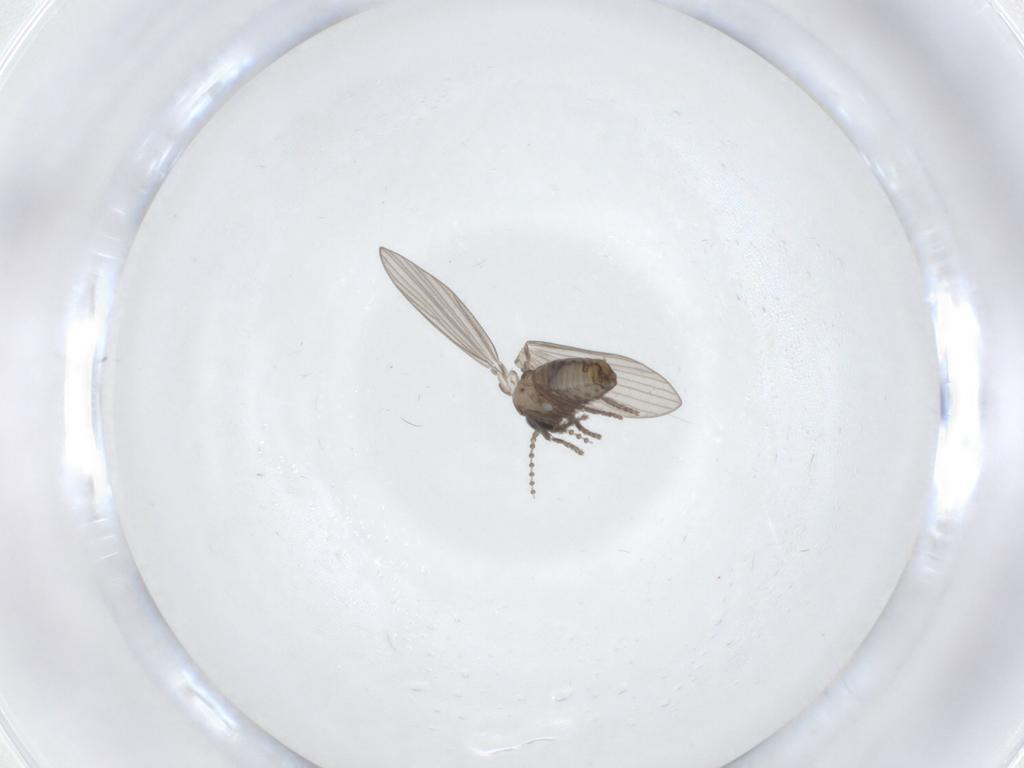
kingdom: Animalia
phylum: Arthropoda
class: Insecta
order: Diptera
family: Psychodidae
